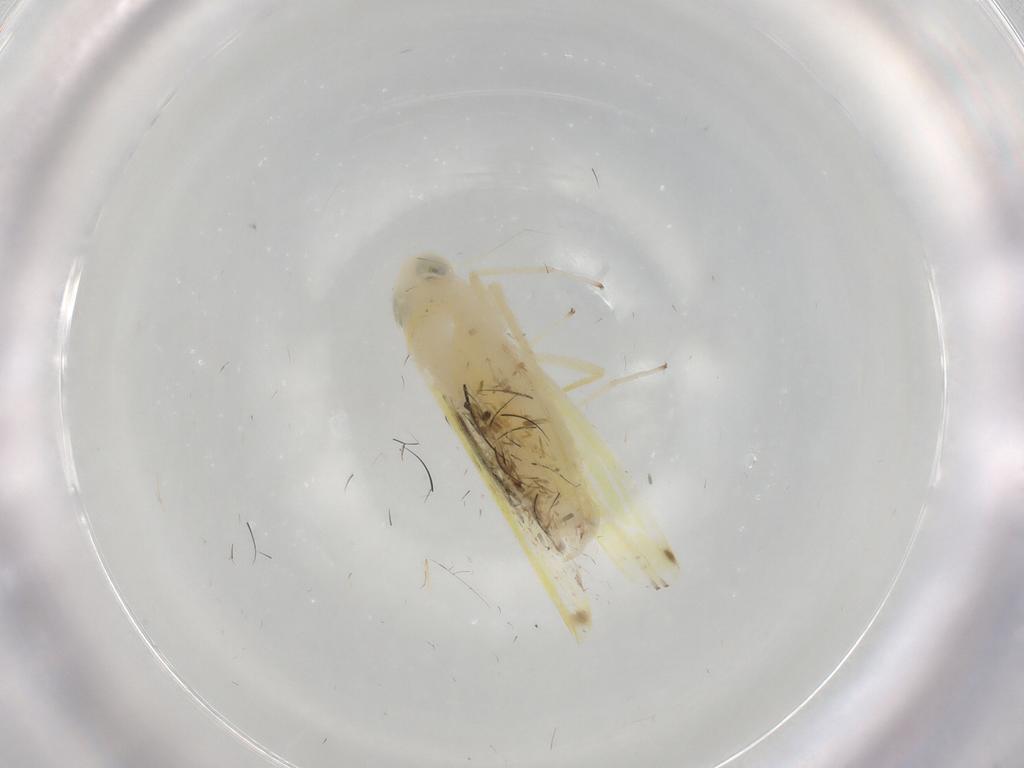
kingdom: Animalia
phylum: Arthropoda
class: Insecta
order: Hemiptera
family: Cicadellidae
